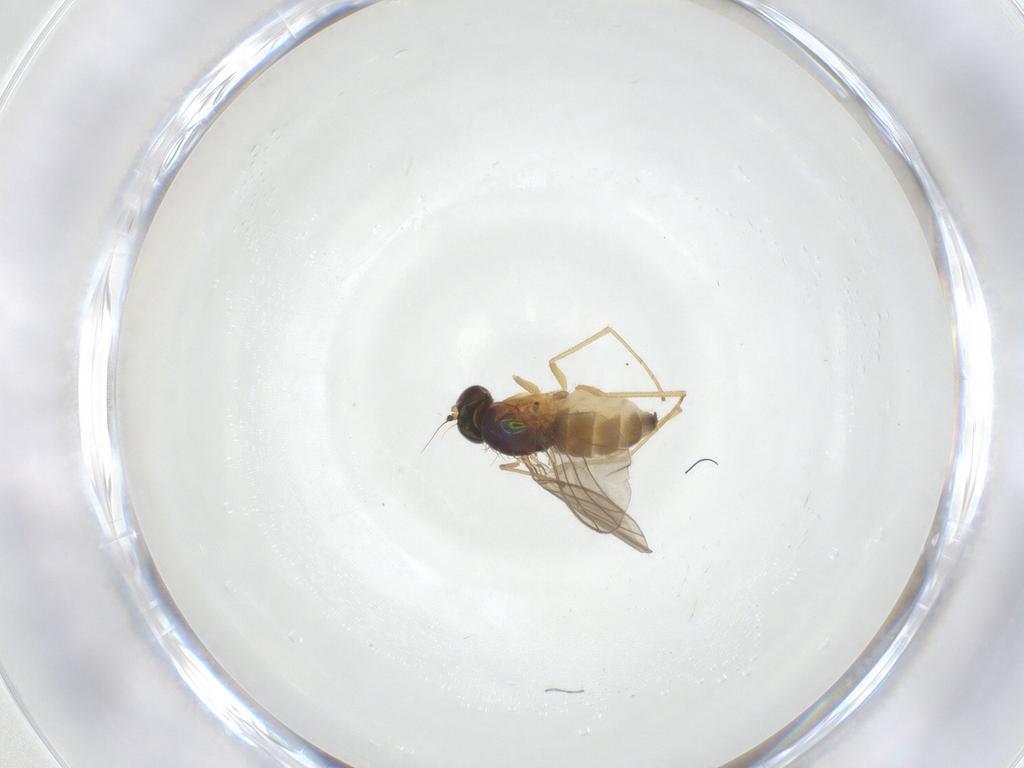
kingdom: Animalia
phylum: Arthropoda
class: Insecta
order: Diptera
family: Dolichopodidae
